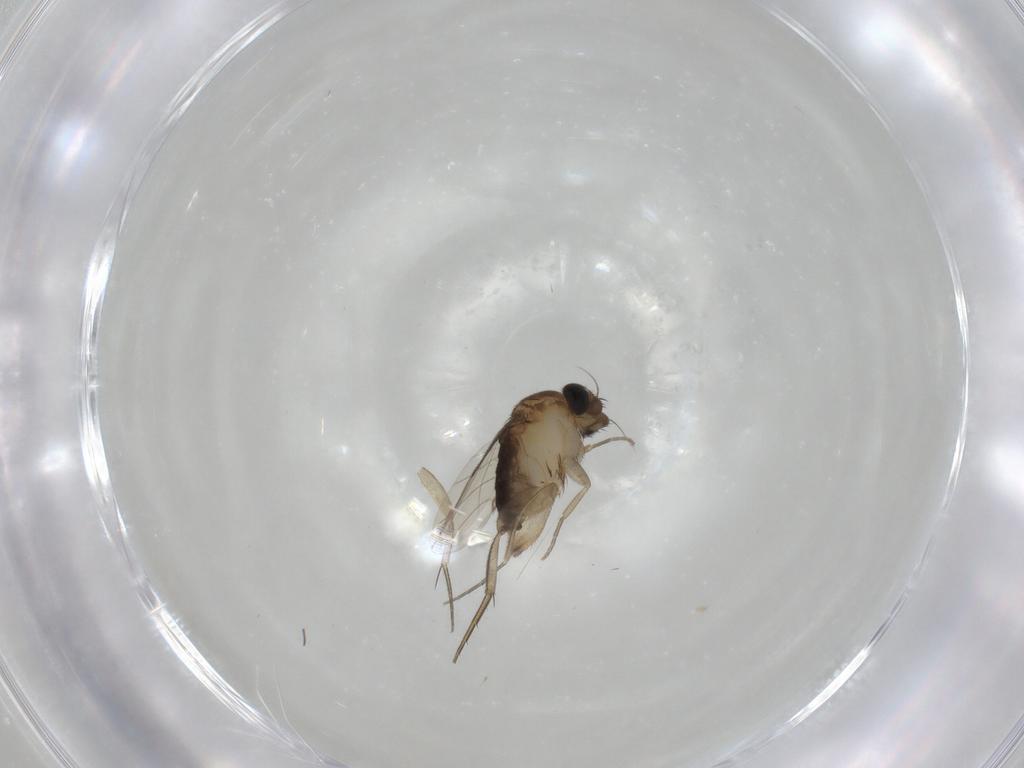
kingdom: Animalia
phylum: Arthropoda
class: Insecta
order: Diptera
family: Phoridae
